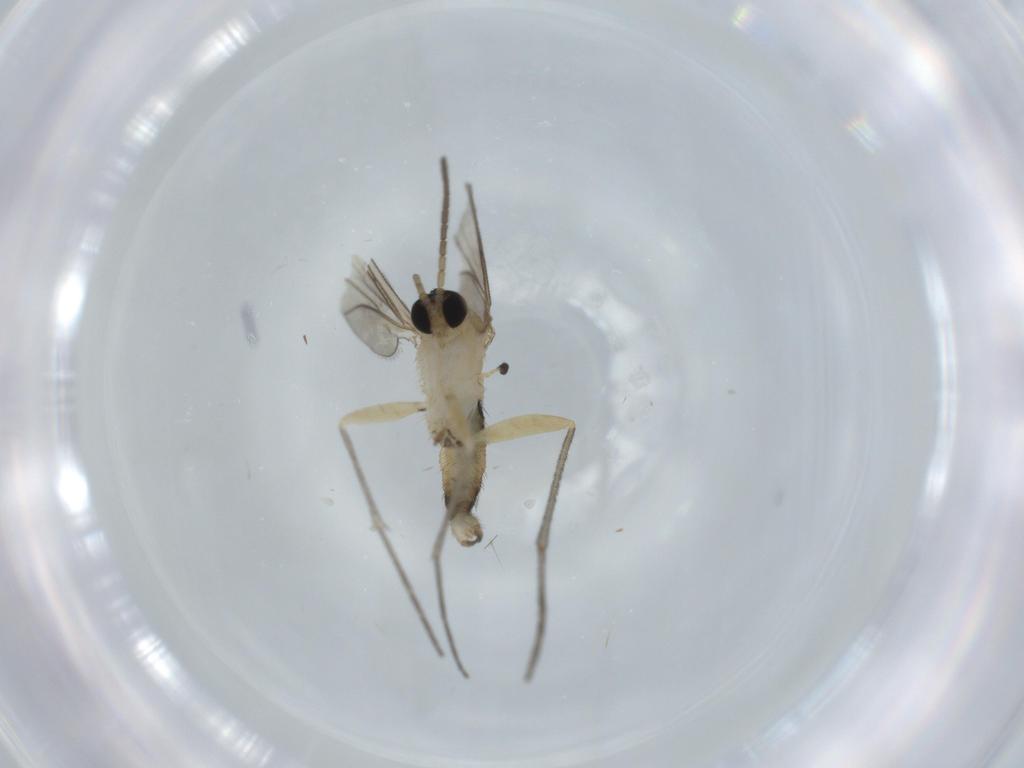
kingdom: Animalia
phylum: Arthropoda
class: Insecta
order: Diptera
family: Sciaridae
